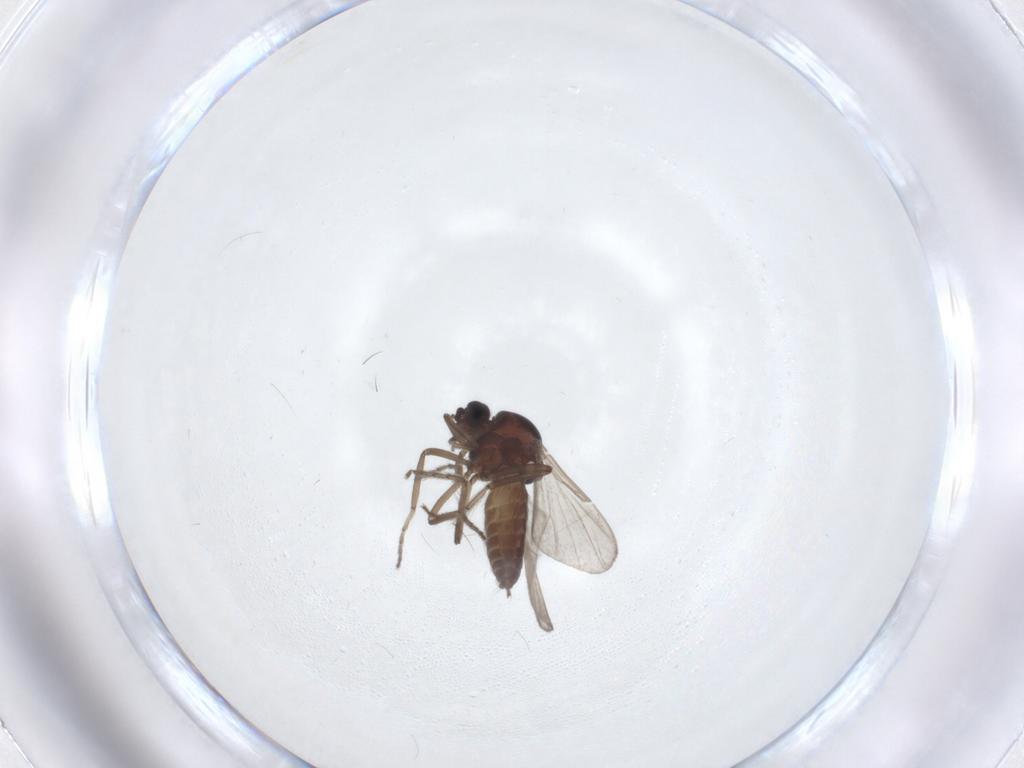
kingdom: Animalia
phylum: Arthropoda
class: Insecta
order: Diptera
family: Ceratopogonidae
